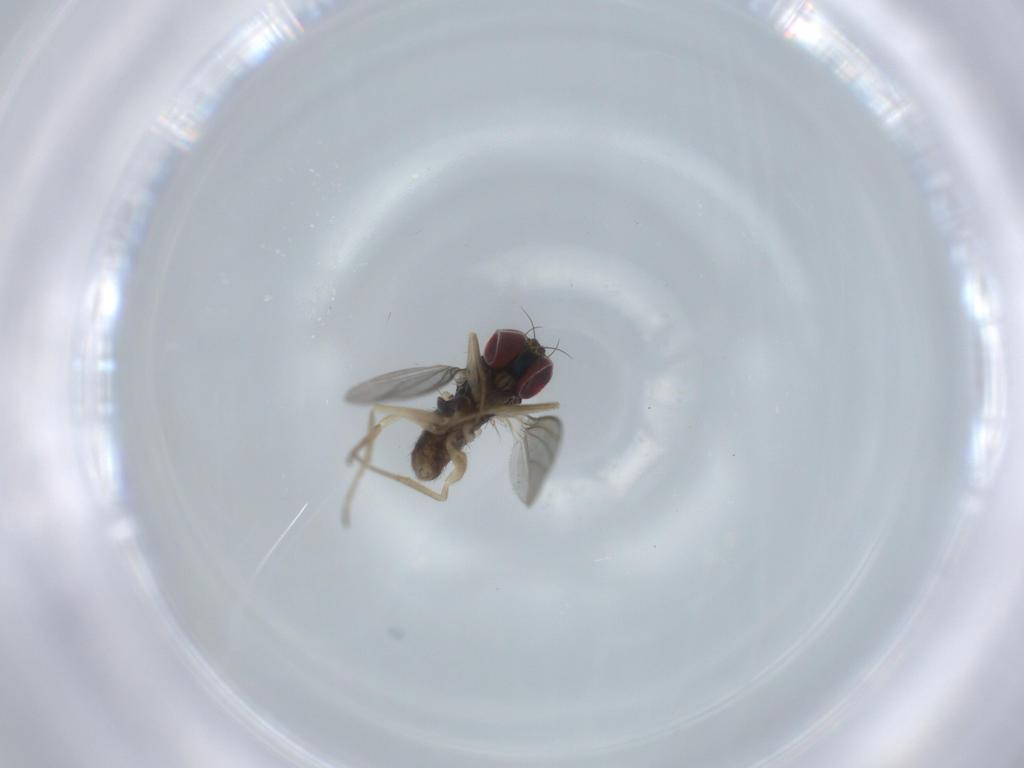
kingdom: Animalia
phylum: Arthropoda
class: Insecta
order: Diptera
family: Dolichopodidae
